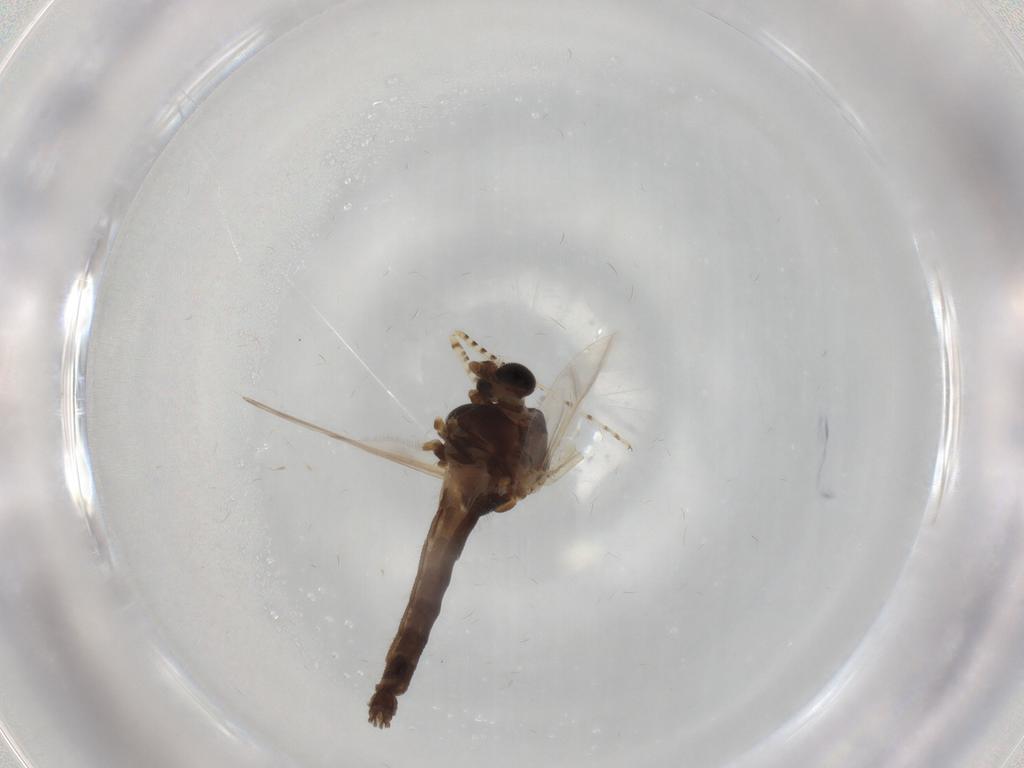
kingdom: Animalia
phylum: Arthropoda
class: Insecta
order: Diptera
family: Chironomidae
